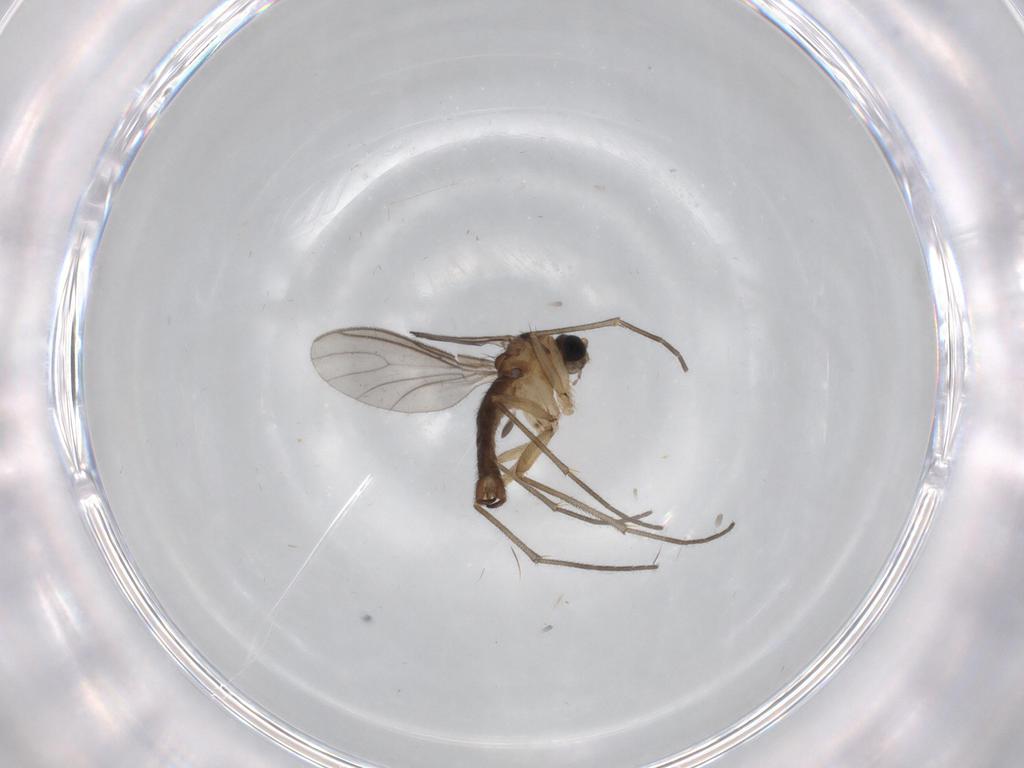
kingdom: Animalia
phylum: Arthropoda
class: Insecta
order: Diptera
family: Sciaridae
